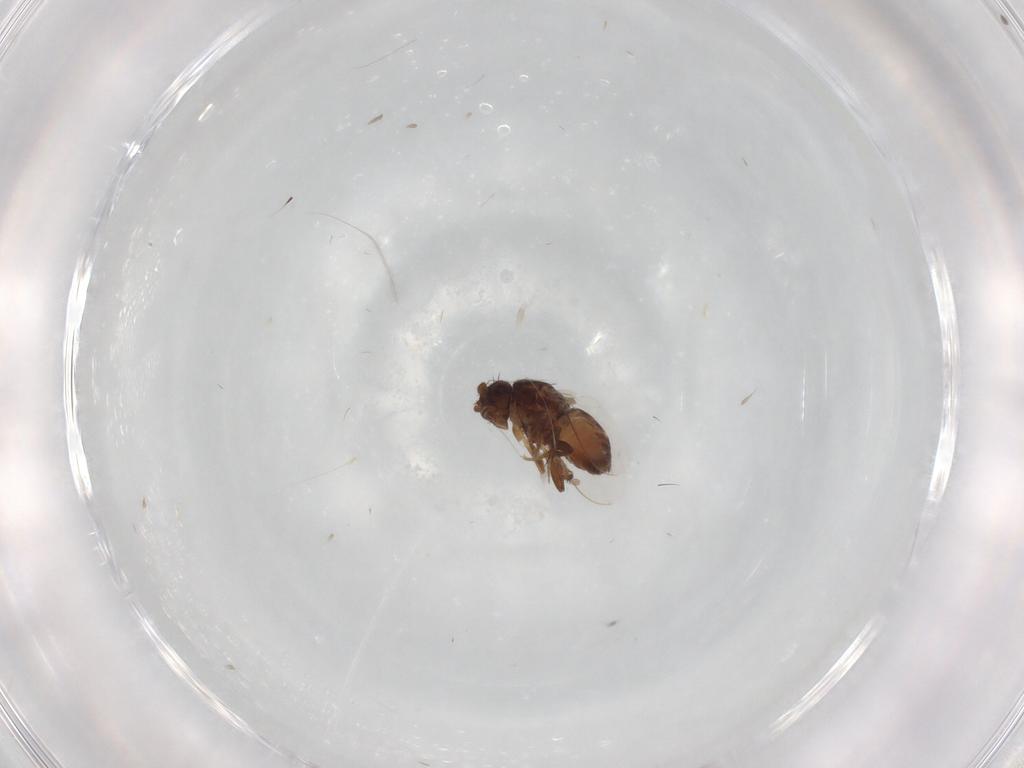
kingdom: Animalia
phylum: Arthropoda
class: Insecta
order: Diptera
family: Sphaeroceridae
